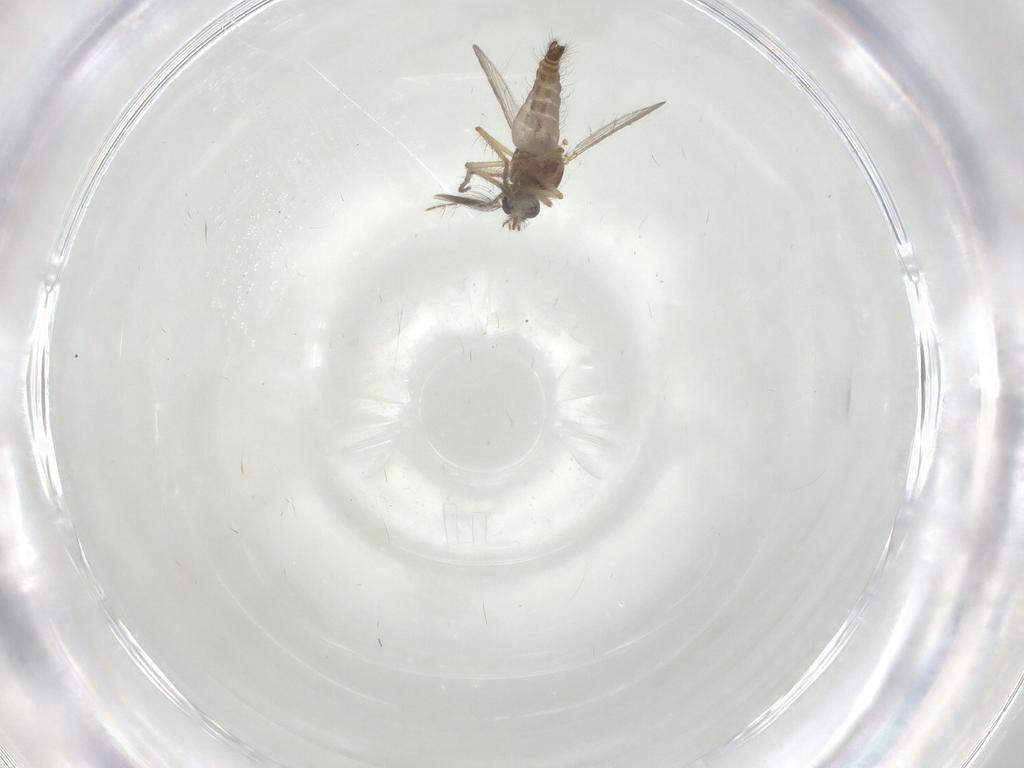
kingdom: Animalia
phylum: Arthropoda
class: Insecta
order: Diptera
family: Ceratopogonidae
